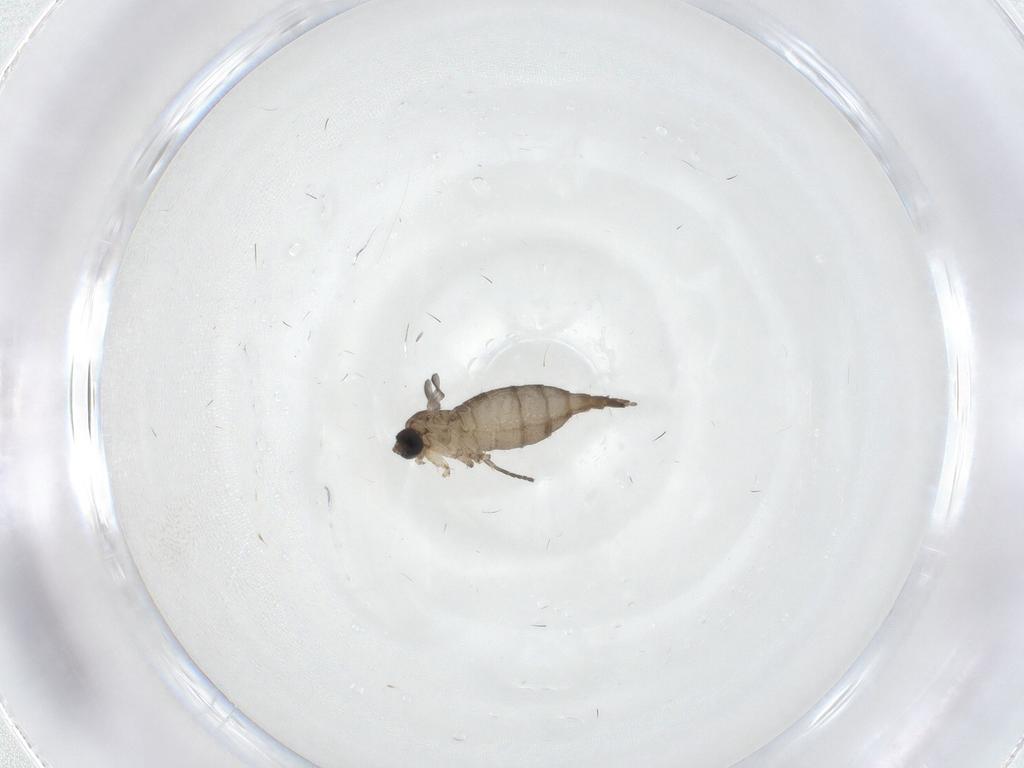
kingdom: Animalia
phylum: Arthropoda
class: Insecta
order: Diptera
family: Sciaridae
